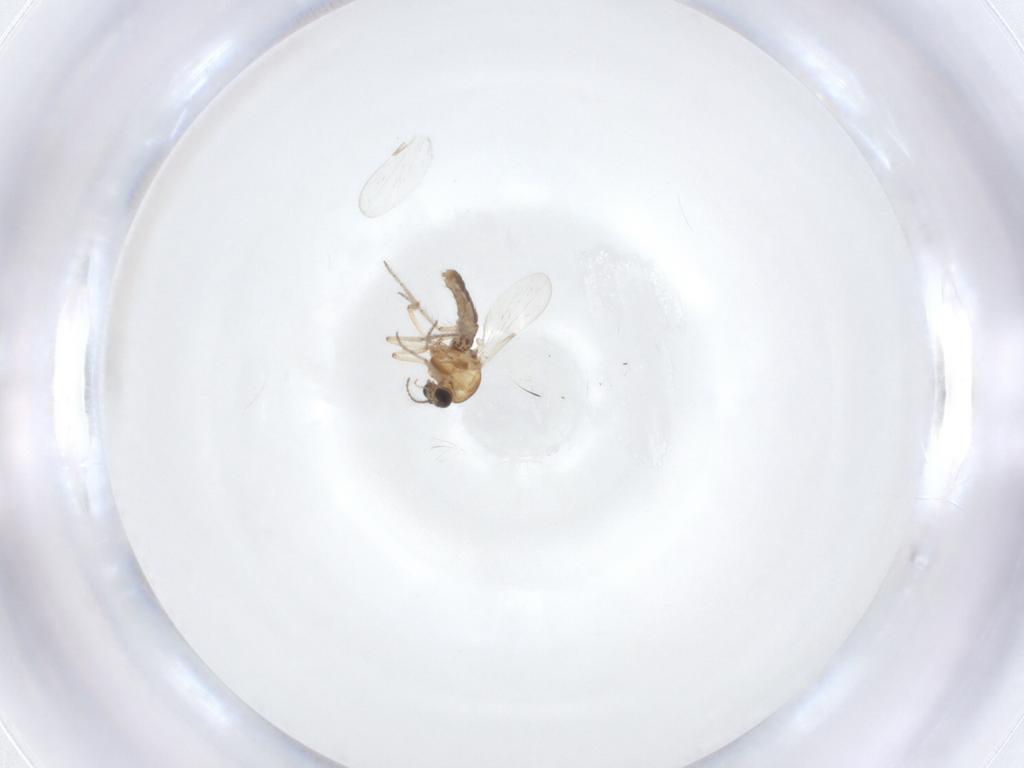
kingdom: Animalia
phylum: Arthropoda
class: Insecta
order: Diptera
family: Ceratopogonidae
